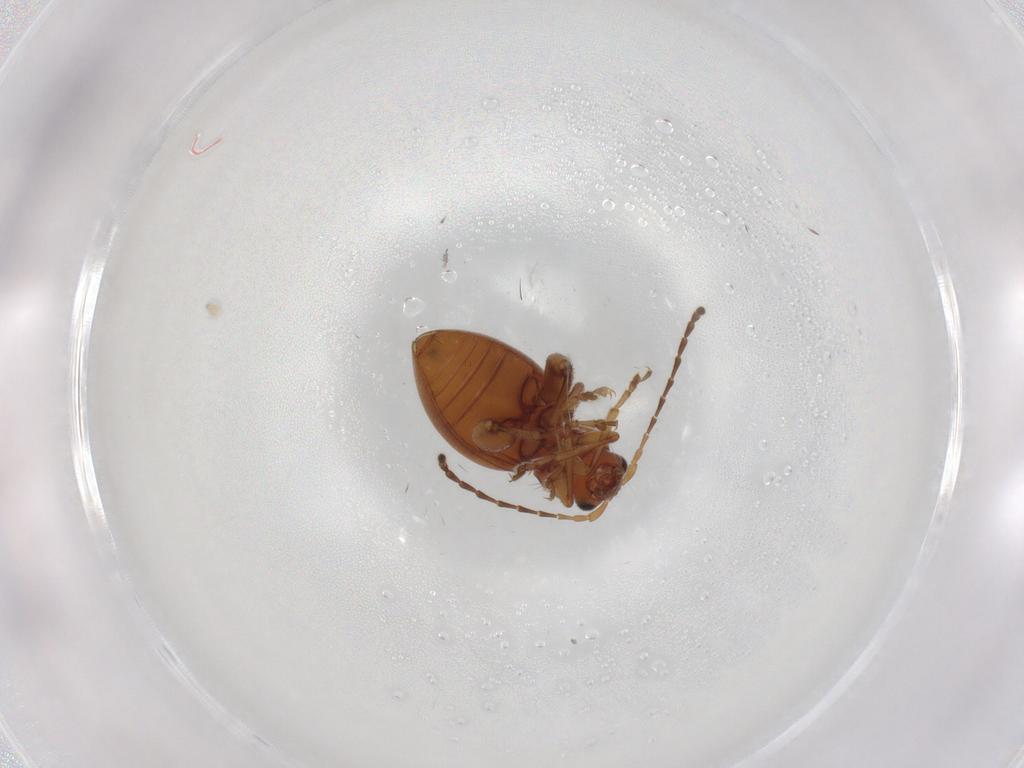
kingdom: Animalia
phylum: Arthropoda
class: Insecta
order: Coleoptera
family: Chrysomelidae
